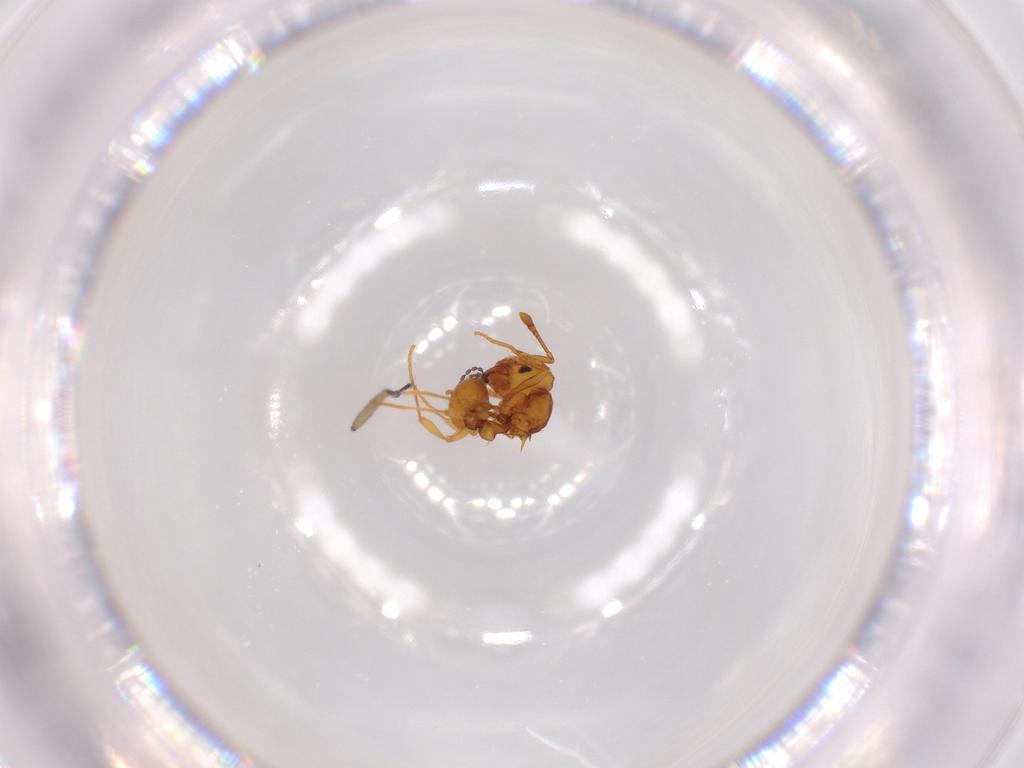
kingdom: Animalia
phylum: Arthropoda
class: Insecta
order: Hymenoptera
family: Formicidae
